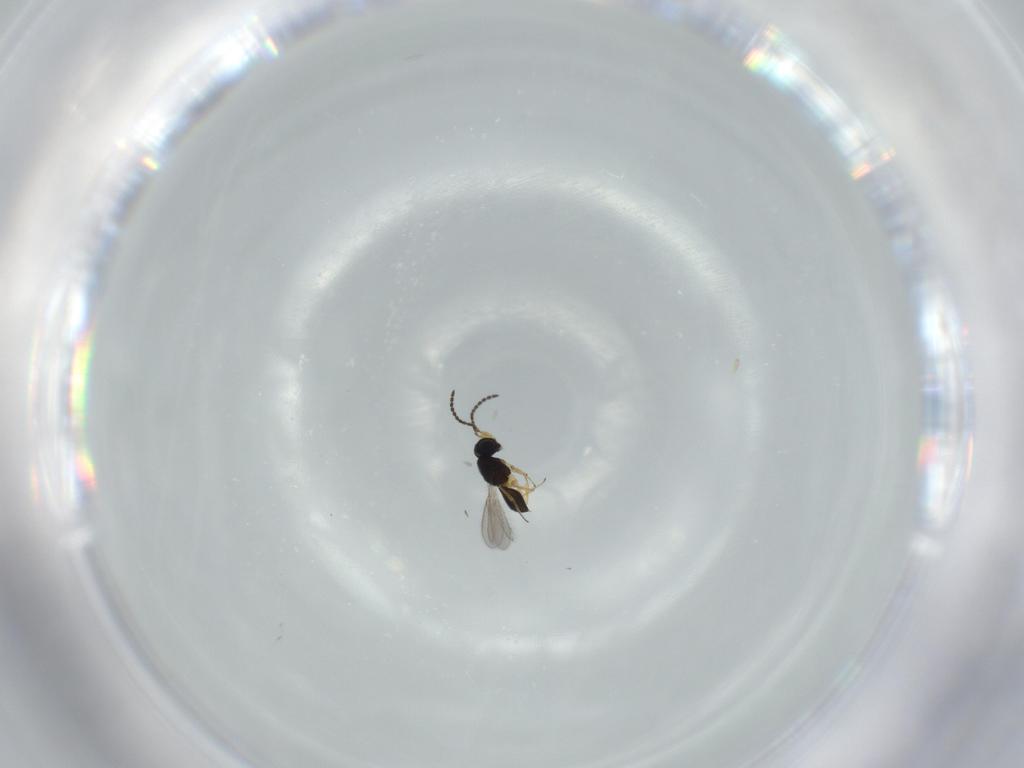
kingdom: Animalia
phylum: Arthropoda
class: Insecta
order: Hymenoptera
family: Scelionidae
